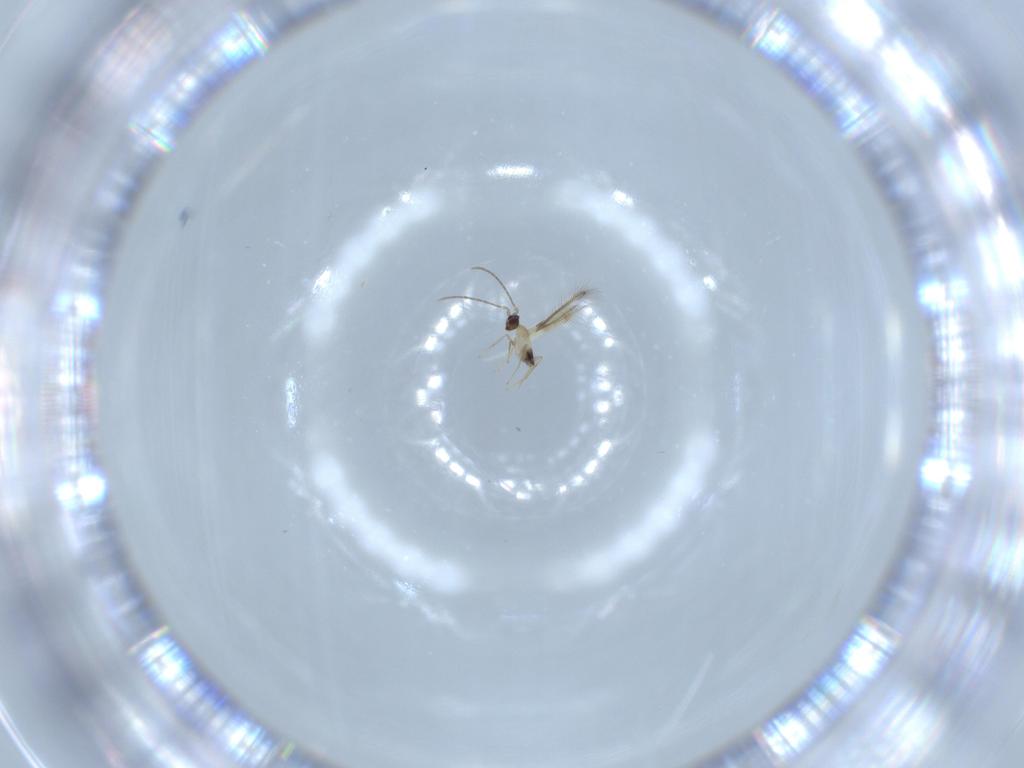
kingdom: Animalia
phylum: Arthropoda
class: Insecta
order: Hymenoptera
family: Mymaridae
